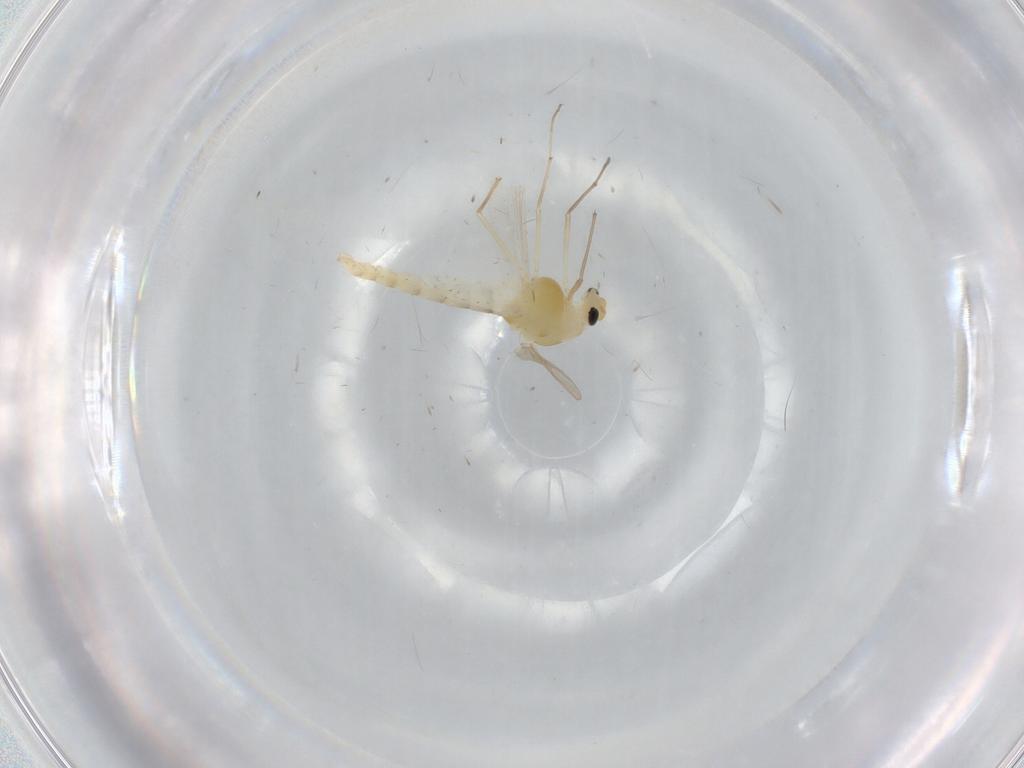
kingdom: Animalia
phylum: Arthropoda
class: Insecta
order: Diptera
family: Chironomidae
